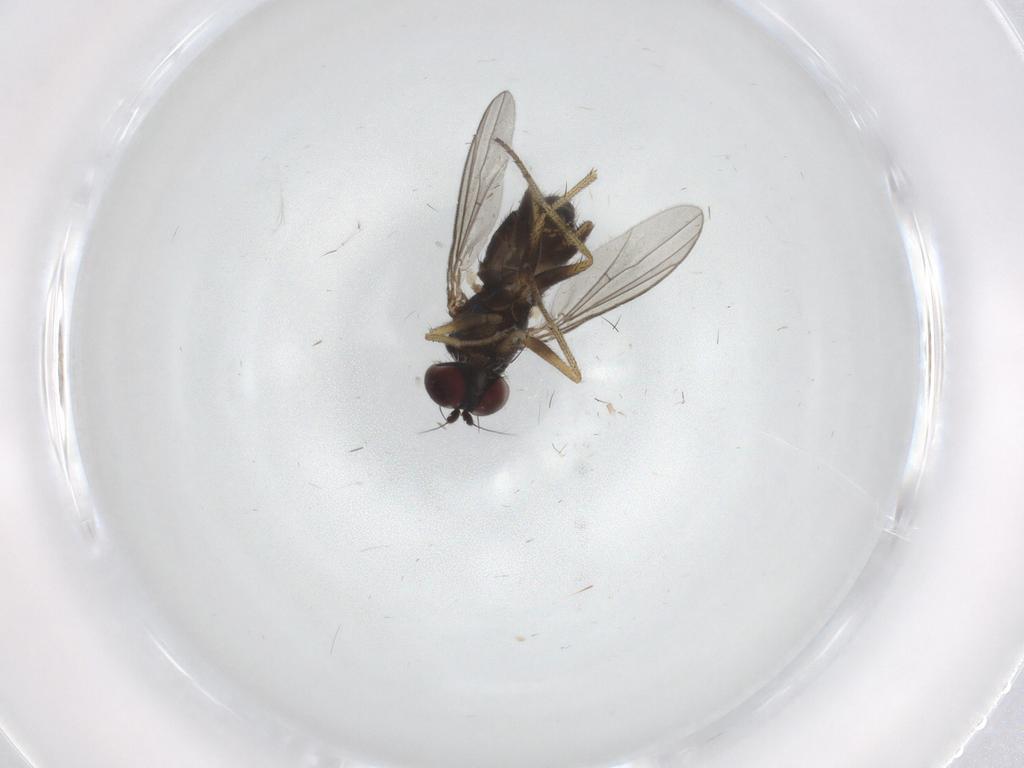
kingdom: Animalia
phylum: Arthropoda
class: Insecta
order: Diptera
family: Dolichopodidae
